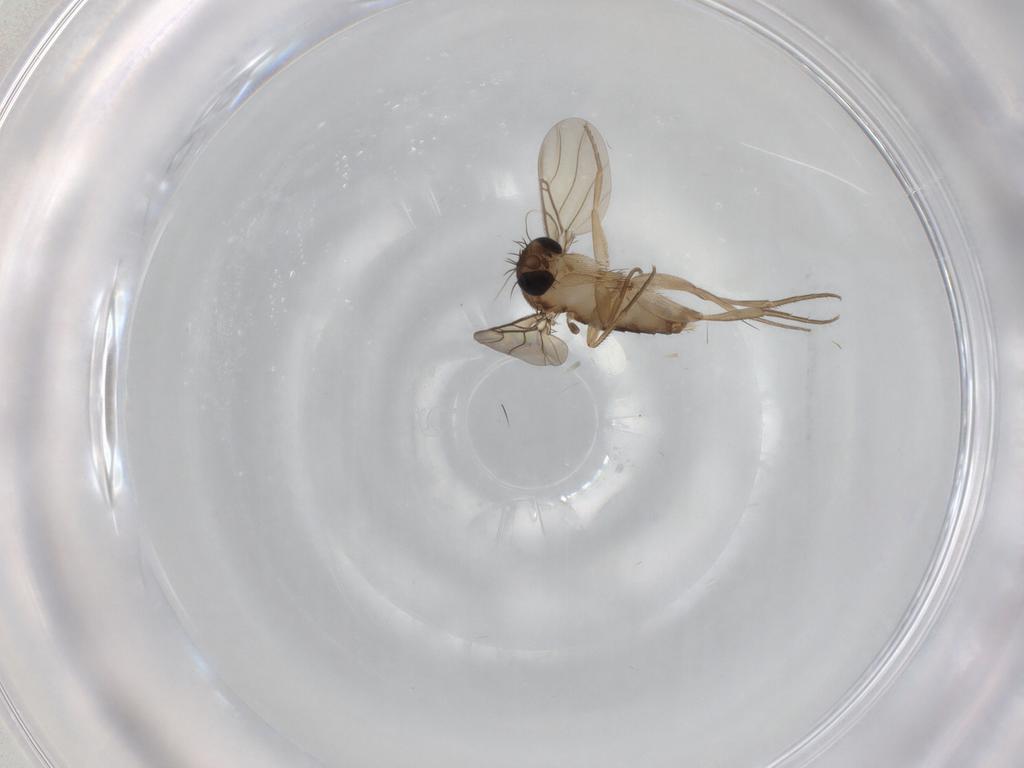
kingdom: Animalia
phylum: Arthropoda
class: Insecta
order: Diptera
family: Phoridae
